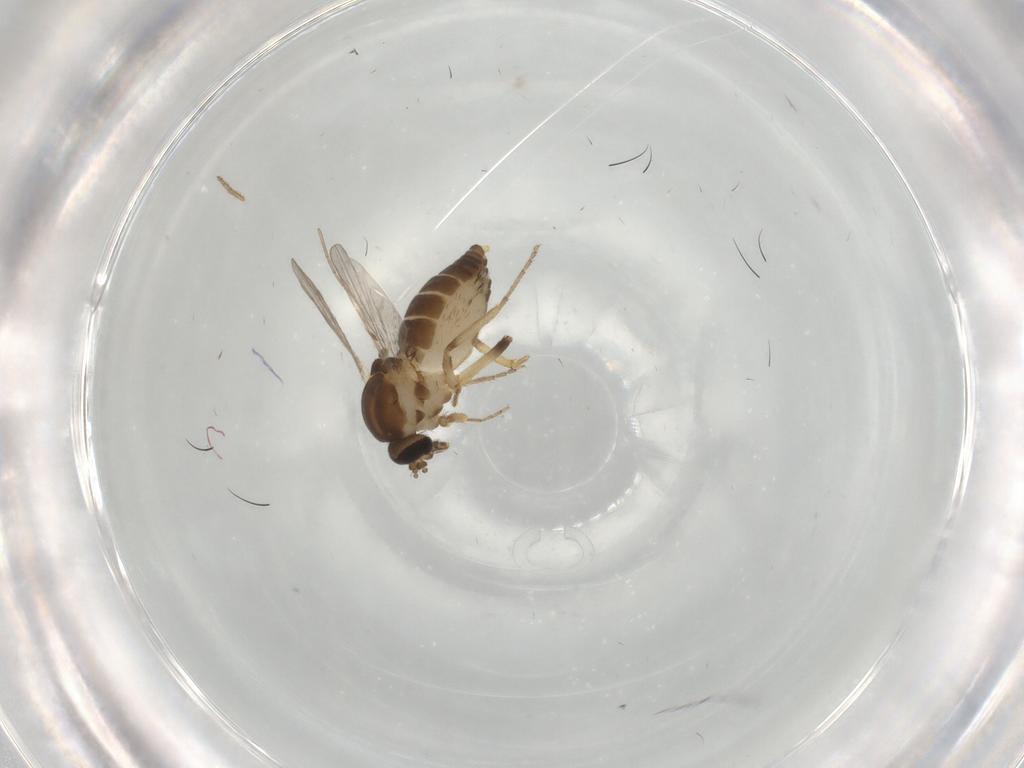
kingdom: Animalia
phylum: Arthropoda
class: Insecta
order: Diptera
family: Ceratopogonidae
